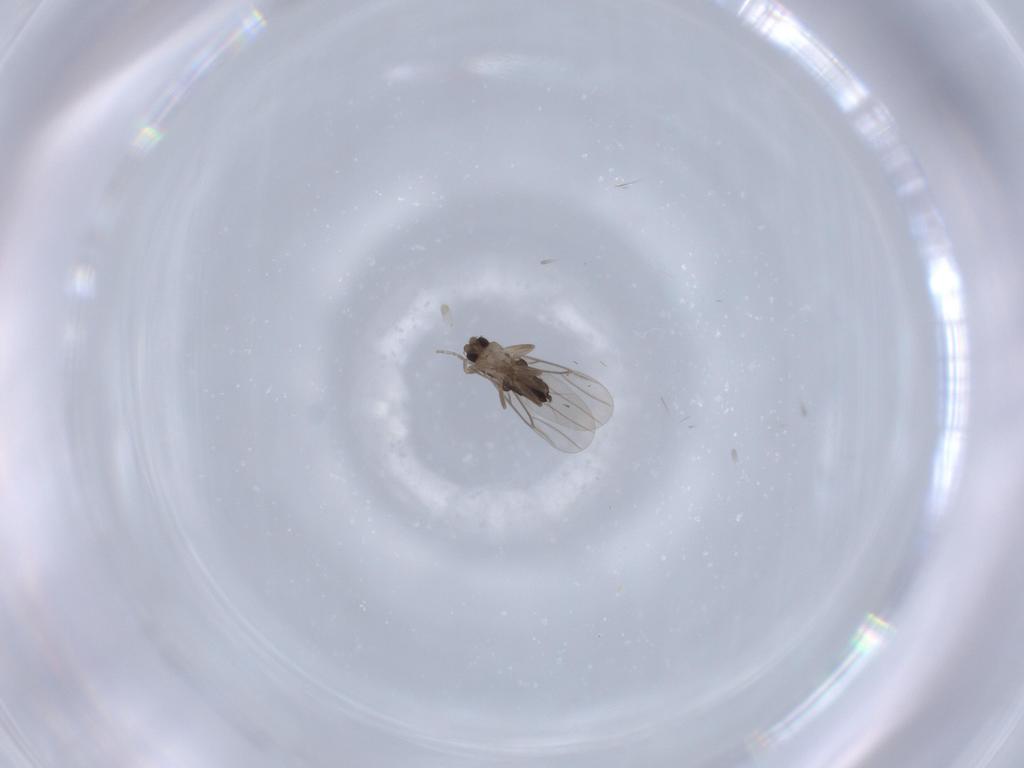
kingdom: Animalia
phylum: Arthropoda
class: Insecta
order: Diptera
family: Phoridae
